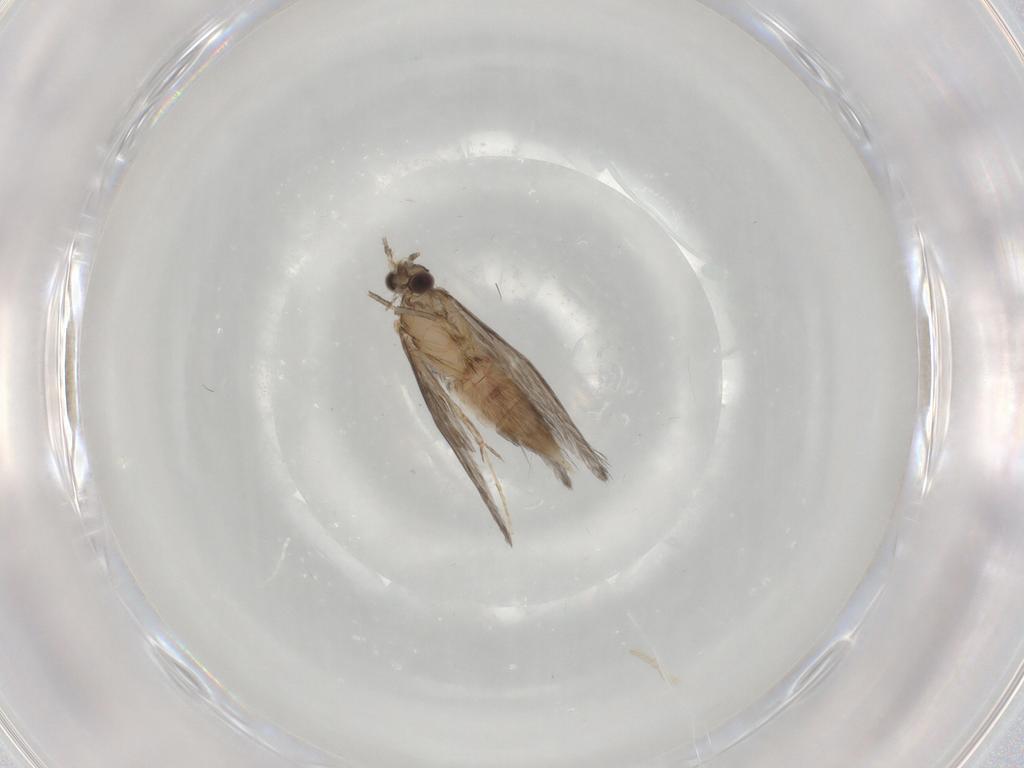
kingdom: Animalia
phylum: Arthropoda
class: Insecta
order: Trichoptera
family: Hydroptilidae
